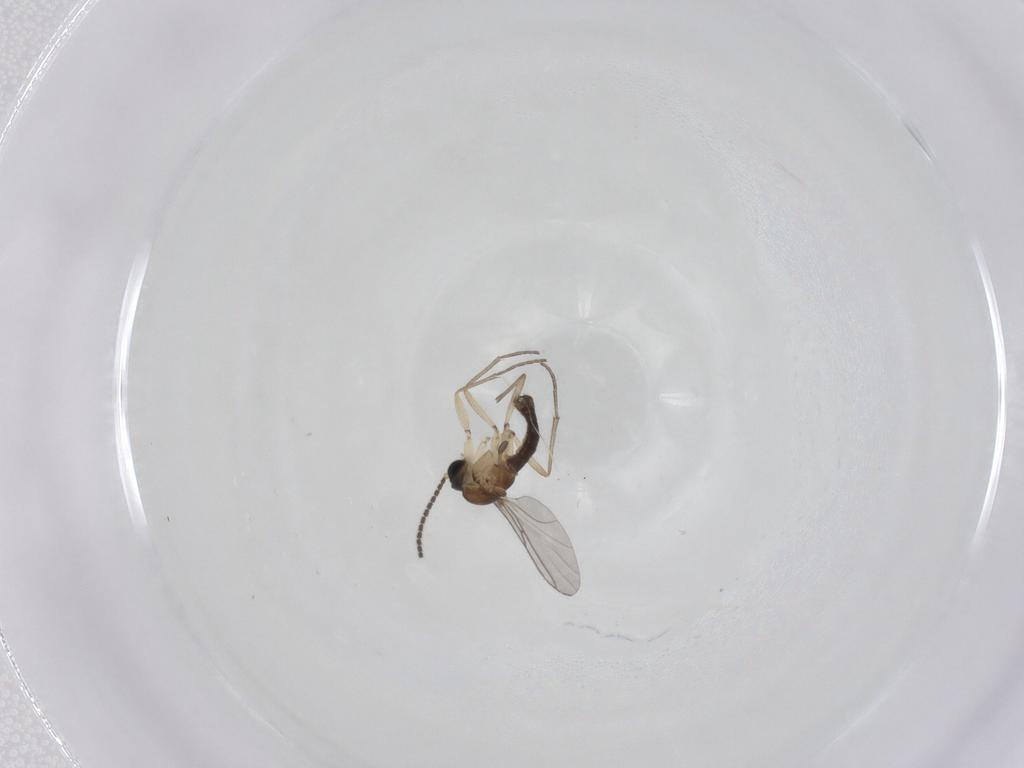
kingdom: Animalia
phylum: Arthropoda
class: Insecta
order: Diptera
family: Sciaridae
